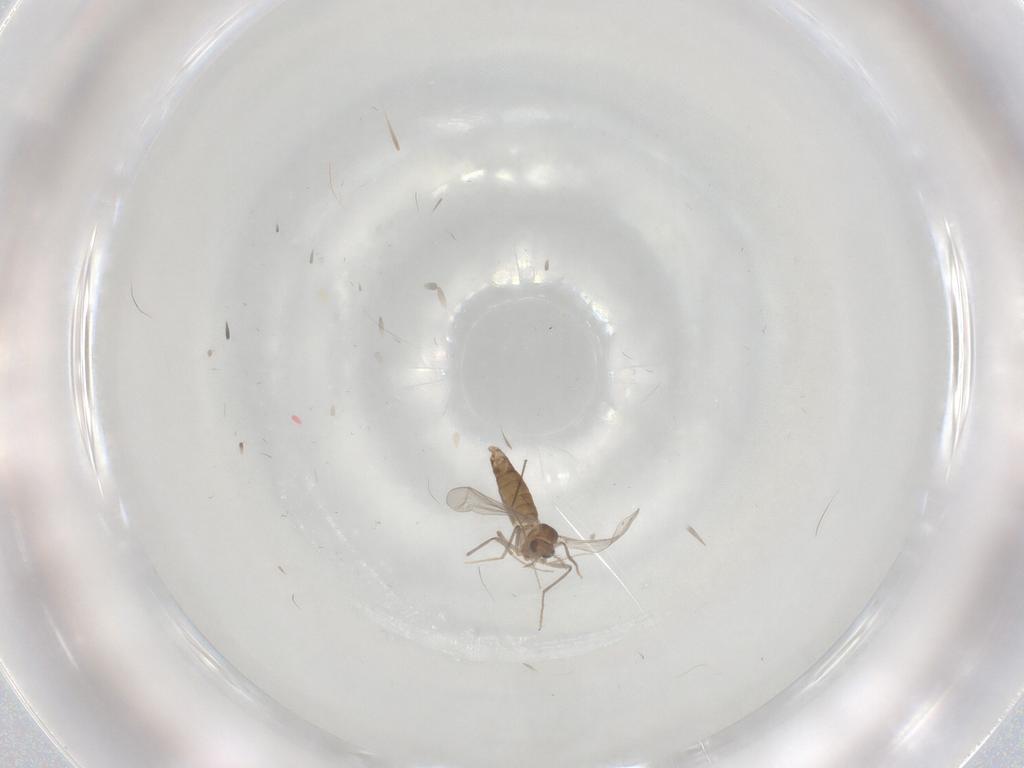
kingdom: Animalia
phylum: Arthropoda
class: Insecta
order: Diptera
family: Chironomidae
